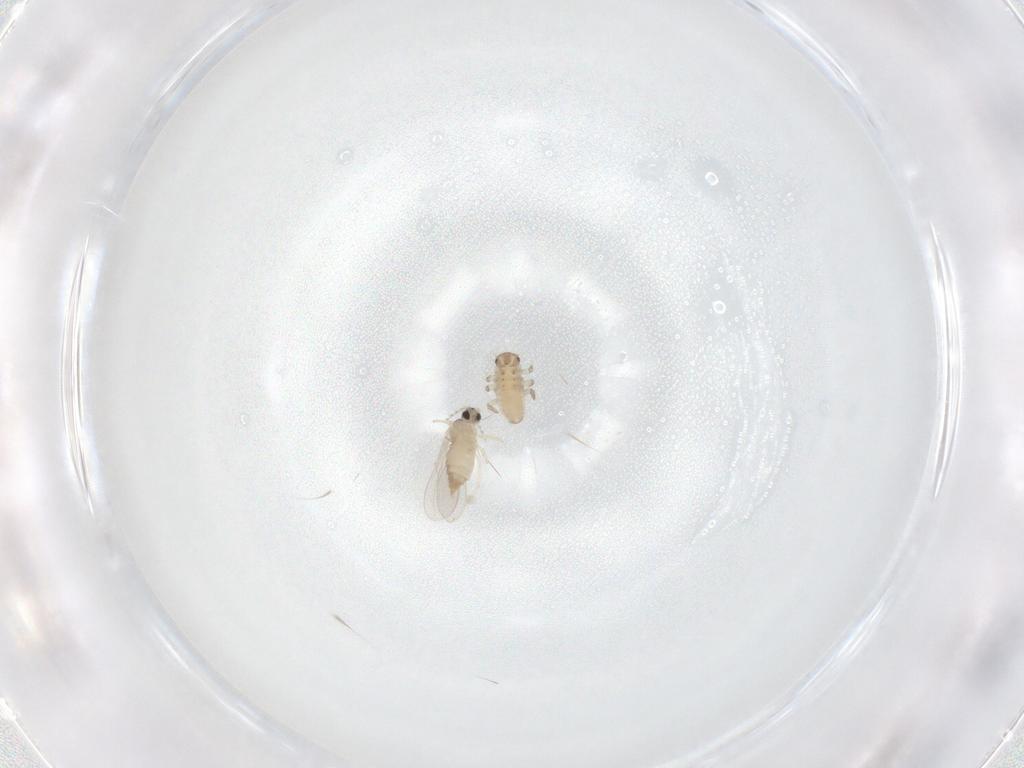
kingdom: Animalia
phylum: Arthropoda
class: Insecta
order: Diptera
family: Cecidomyiidae
